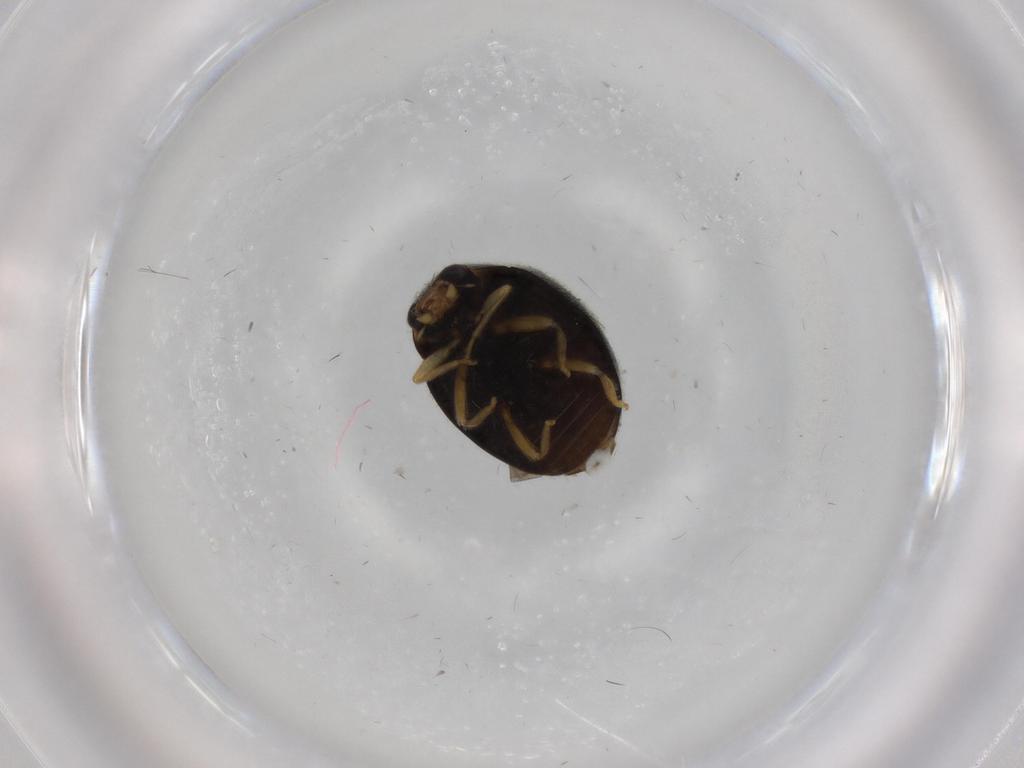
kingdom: Animalia
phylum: Arthropoda
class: Insecta
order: Coleoptera
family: Coccinellidae
